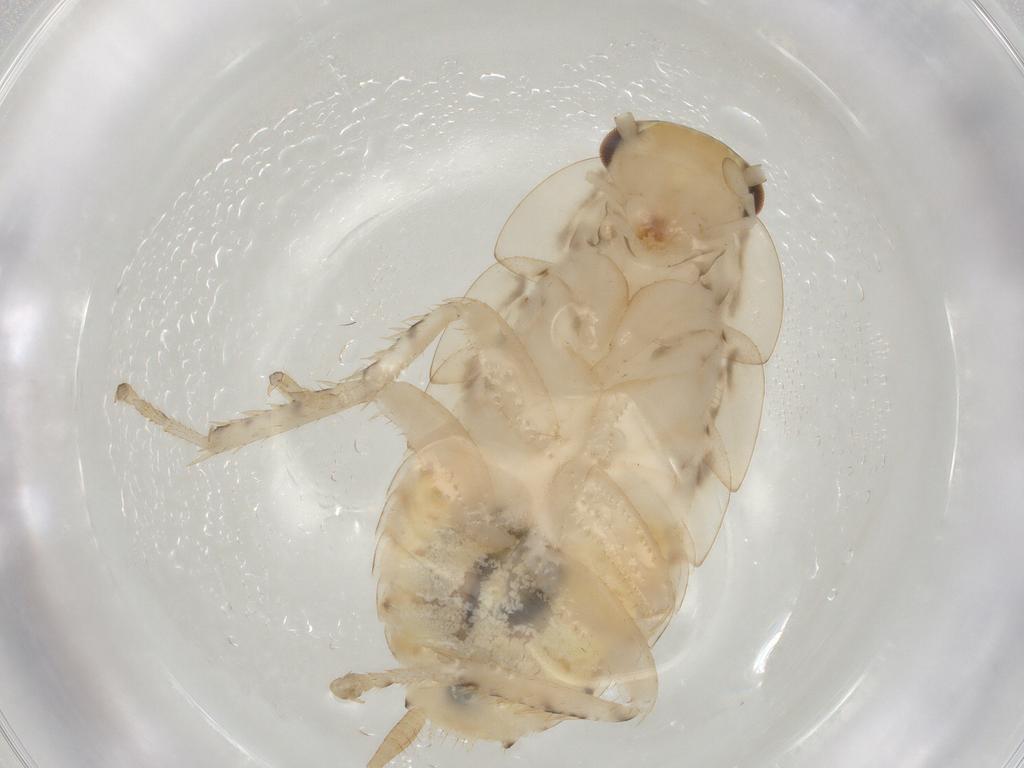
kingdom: Animalia
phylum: Arthropoda
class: Insecta
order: Blattodea
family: Ectobiidae
